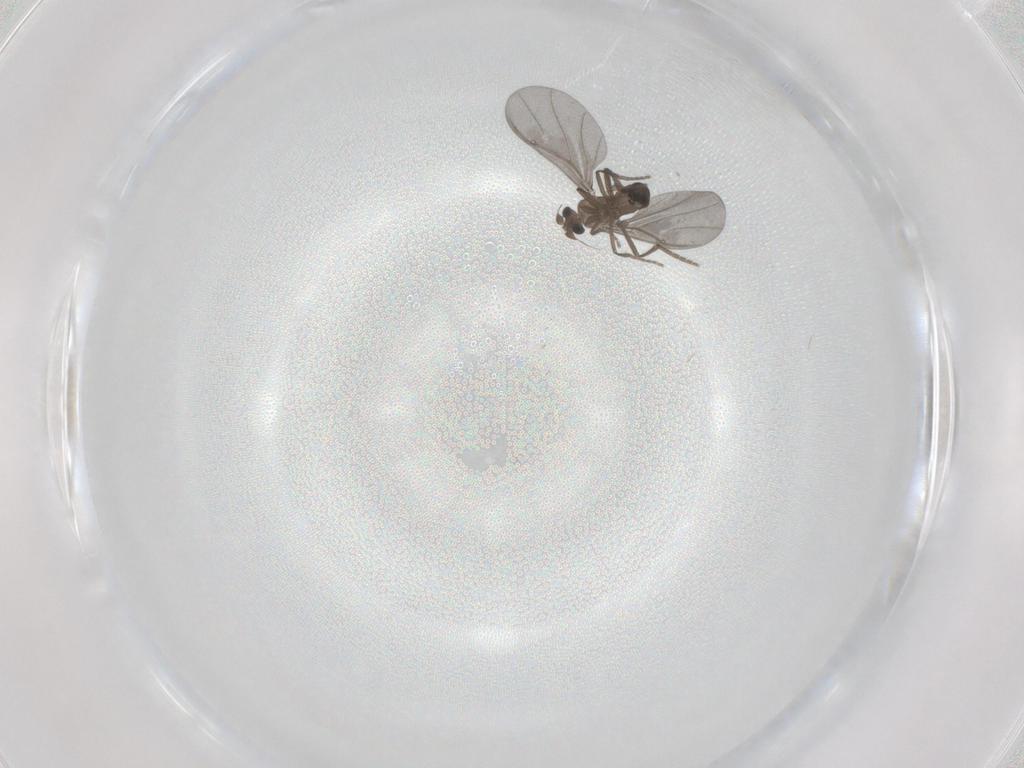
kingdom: Animalia
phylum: Arthropoda
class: Insecta
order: Diptera
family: Phoridae
